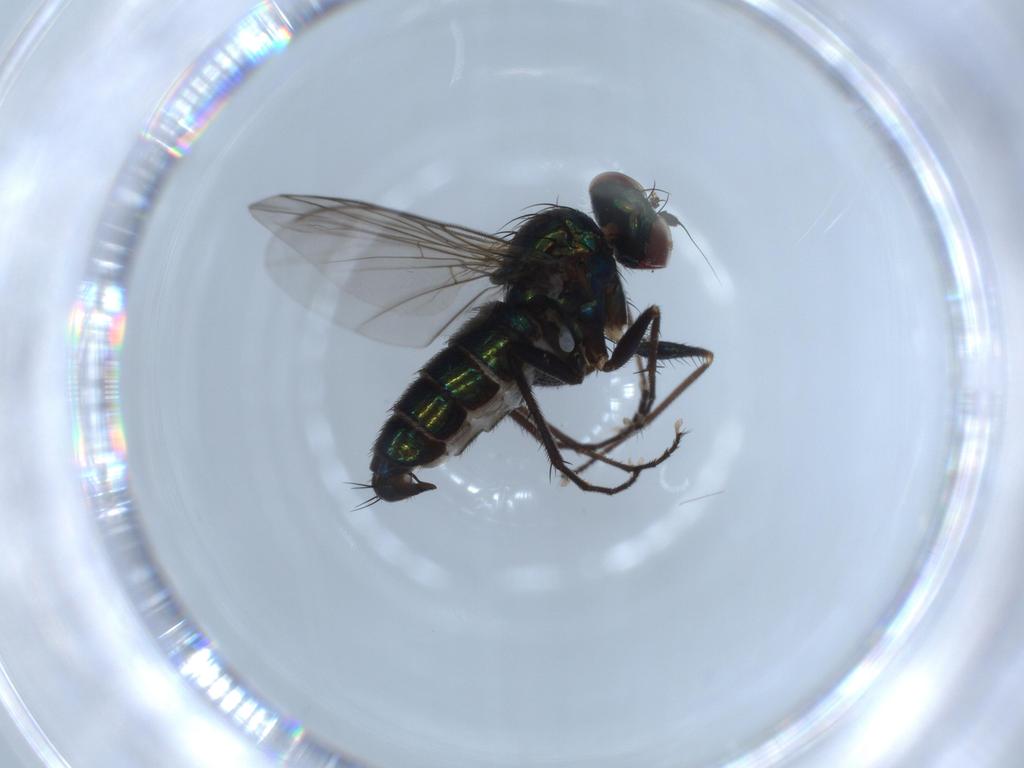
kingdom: Animalia
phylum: Arthropoda
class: Insecta
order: Diptera
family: Dolichopodidae
